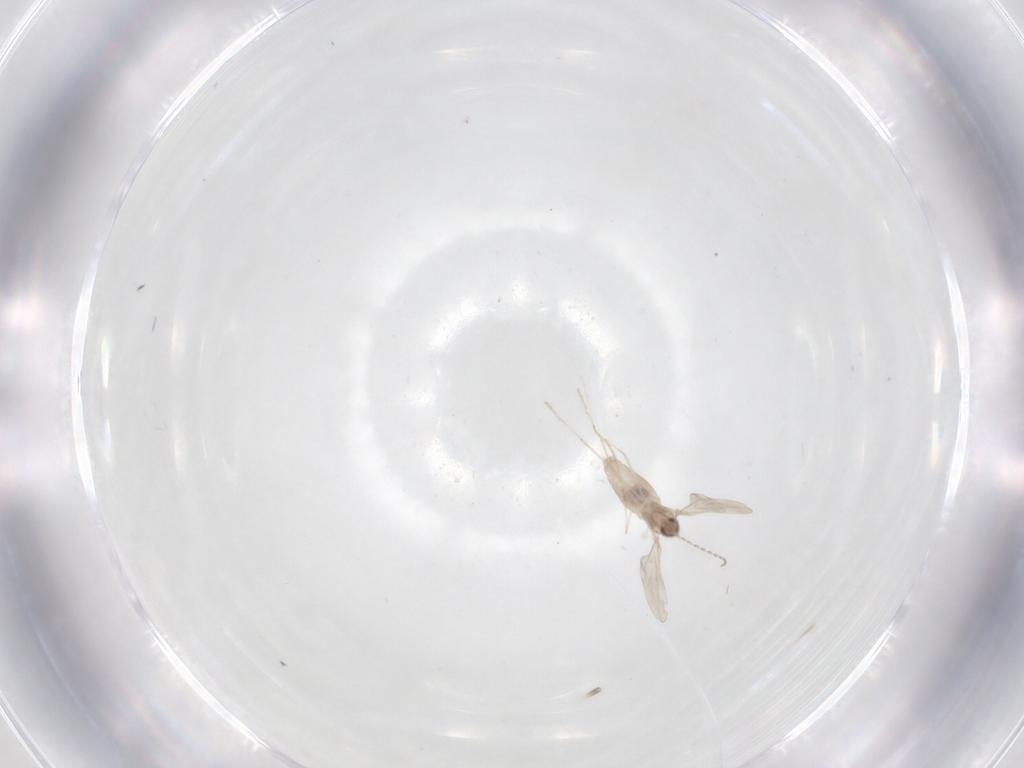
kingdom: Animalia
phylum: Arthropoda
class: Insecta
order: Diptera
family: Cecidomyiidae
